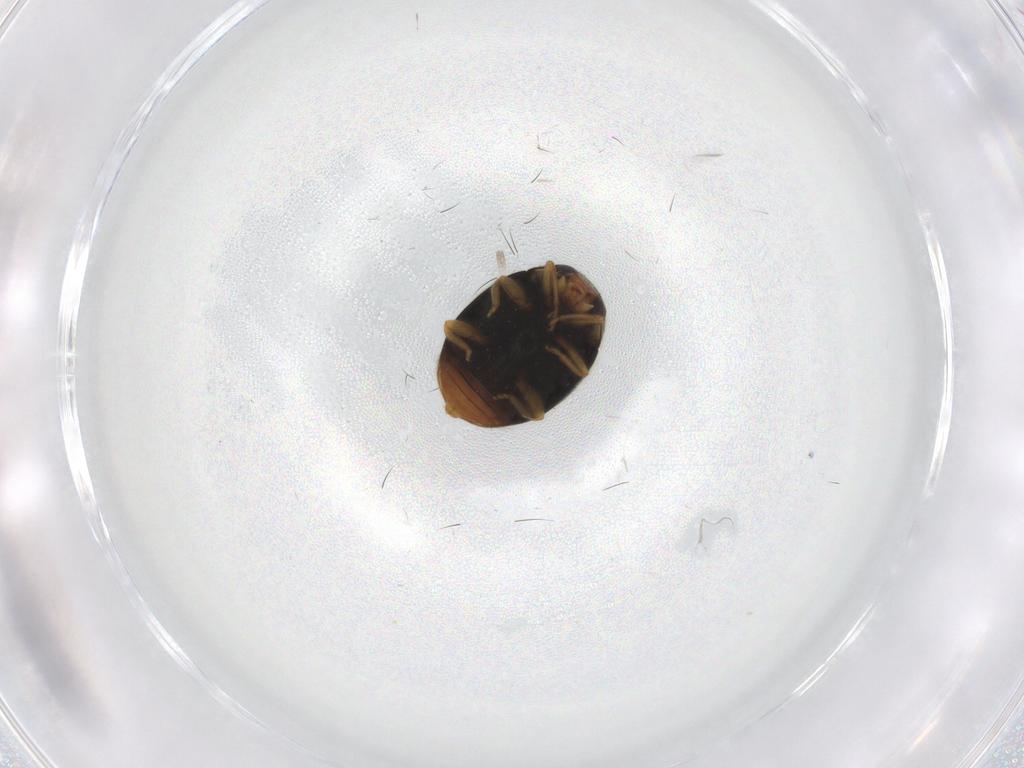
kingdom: Animalia
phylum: Arthropoda
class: Insecta
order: Coleoptera
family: Coccinellidae
